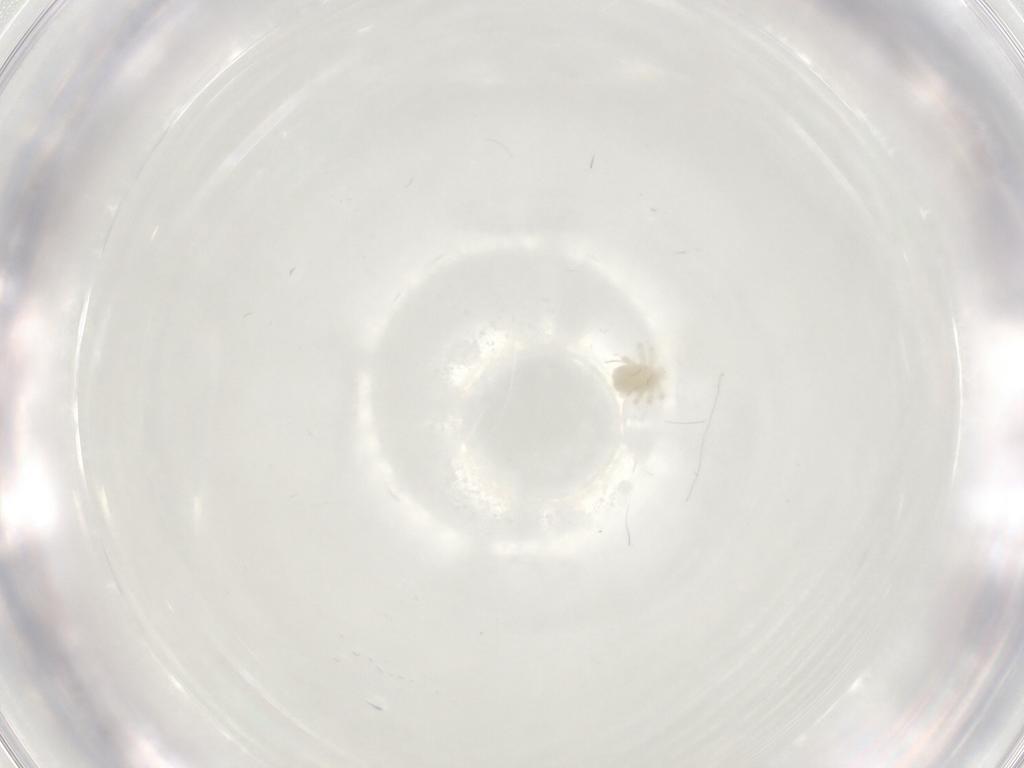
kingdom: Animalia
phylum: Arthropoda
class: Arachnida
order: Trombidiformes
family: Anystidae
